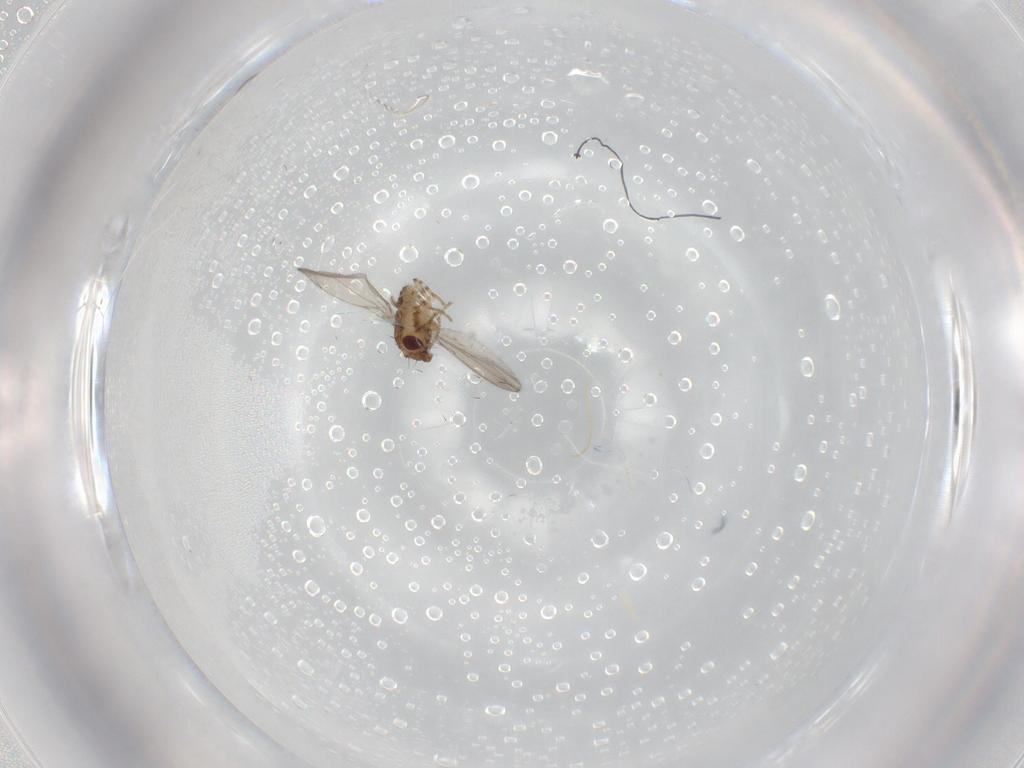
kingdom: Animalia
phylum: Arthropoda
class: Insecta
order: Diptera
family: Asteiidae
